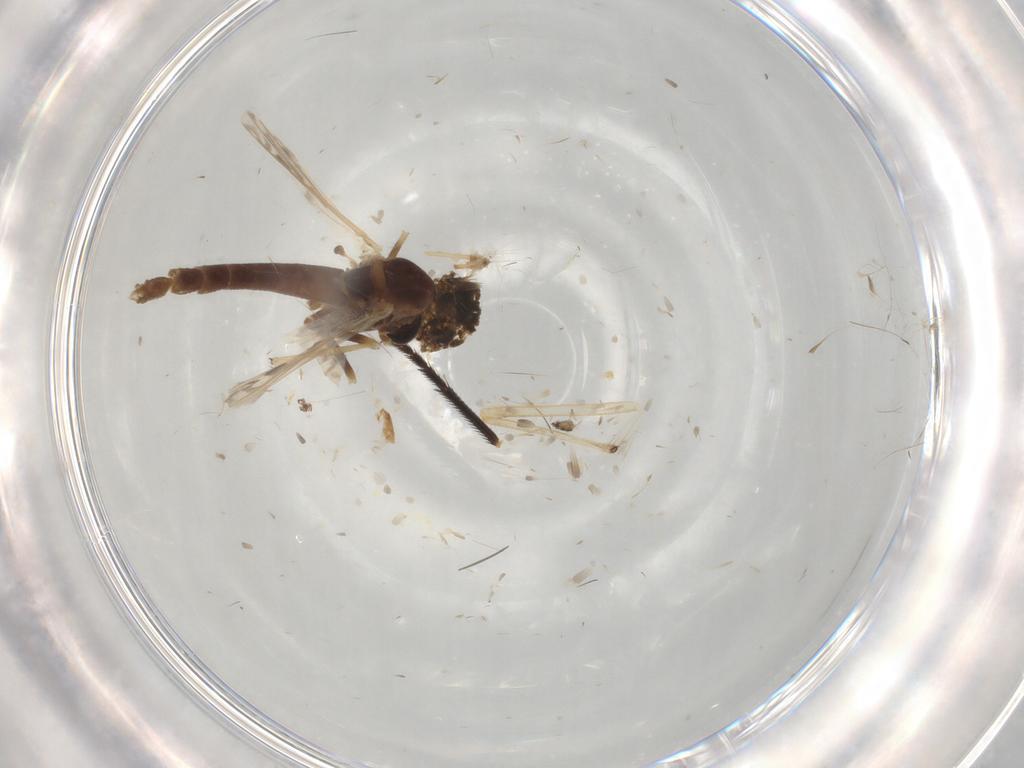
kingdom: Animalia
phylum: Arthropoda
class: Insecta
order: Diptera
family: Chironomidae
